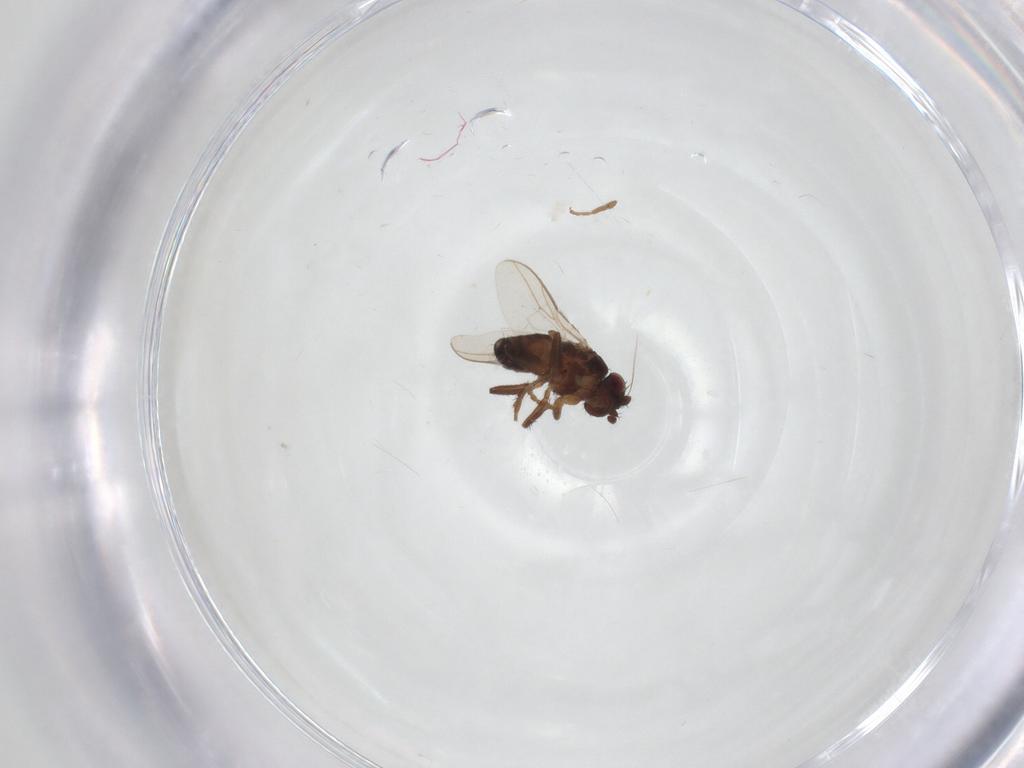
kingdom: Animalia
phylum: Arthropoda
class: Insecta
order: Diptera
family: Sphaeroceridae
